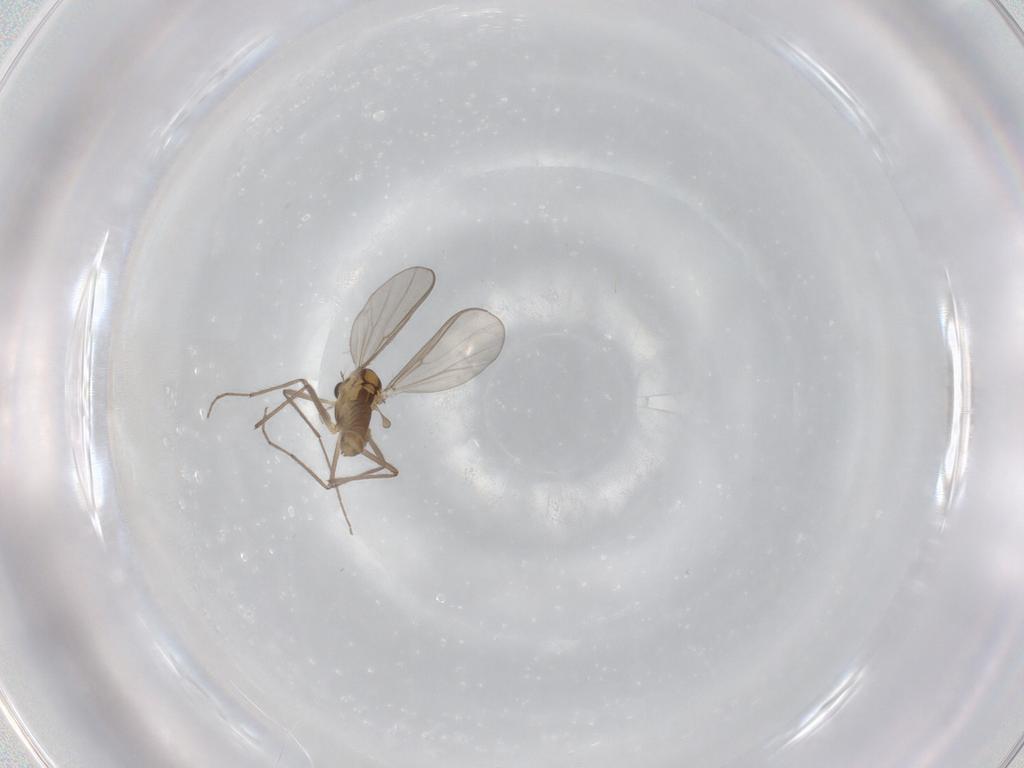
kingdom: Animalia
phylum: Arthropoda
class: Insecta
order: Diptera
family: Chironomidae
